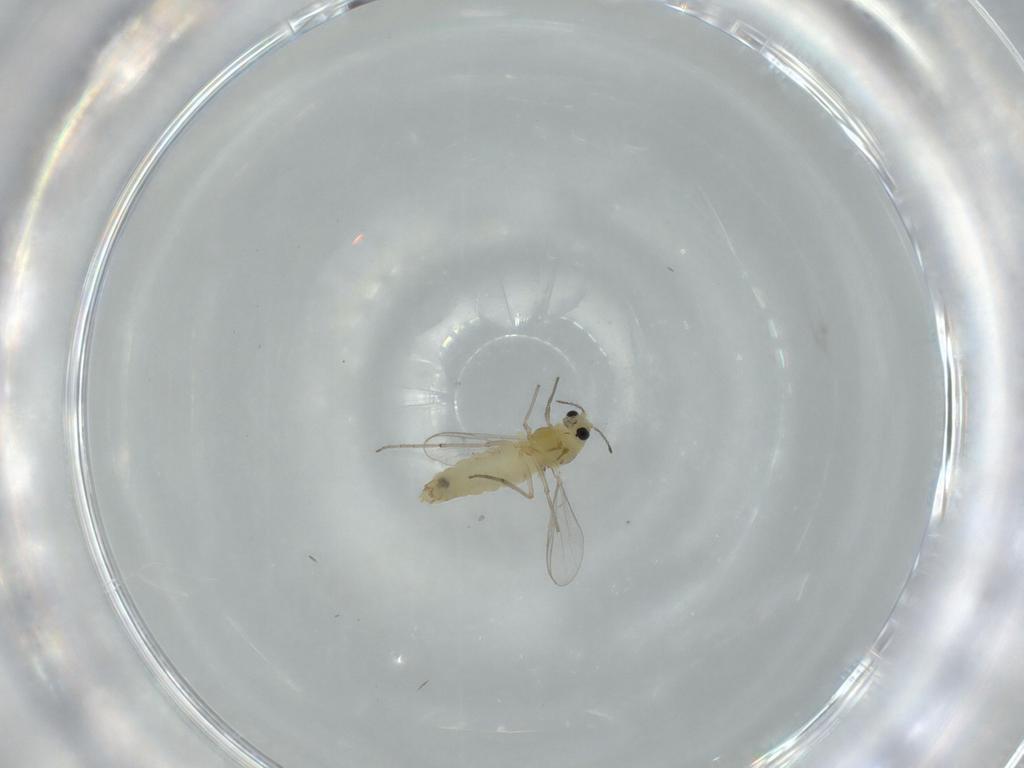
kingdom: Animalia
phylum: Arthropoda
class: Insecta
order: Diptera
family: Chironomidae
